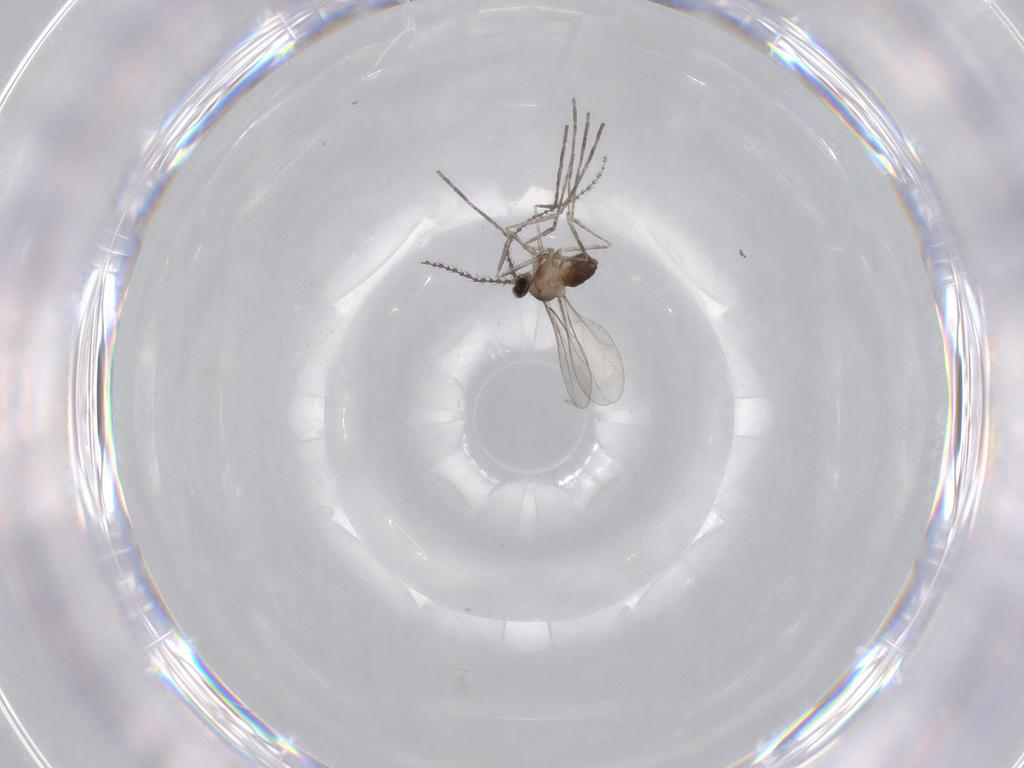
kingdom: Animalia
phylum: Arthropoda
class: Insecta
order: Diptera
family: Cecidomyiidae
